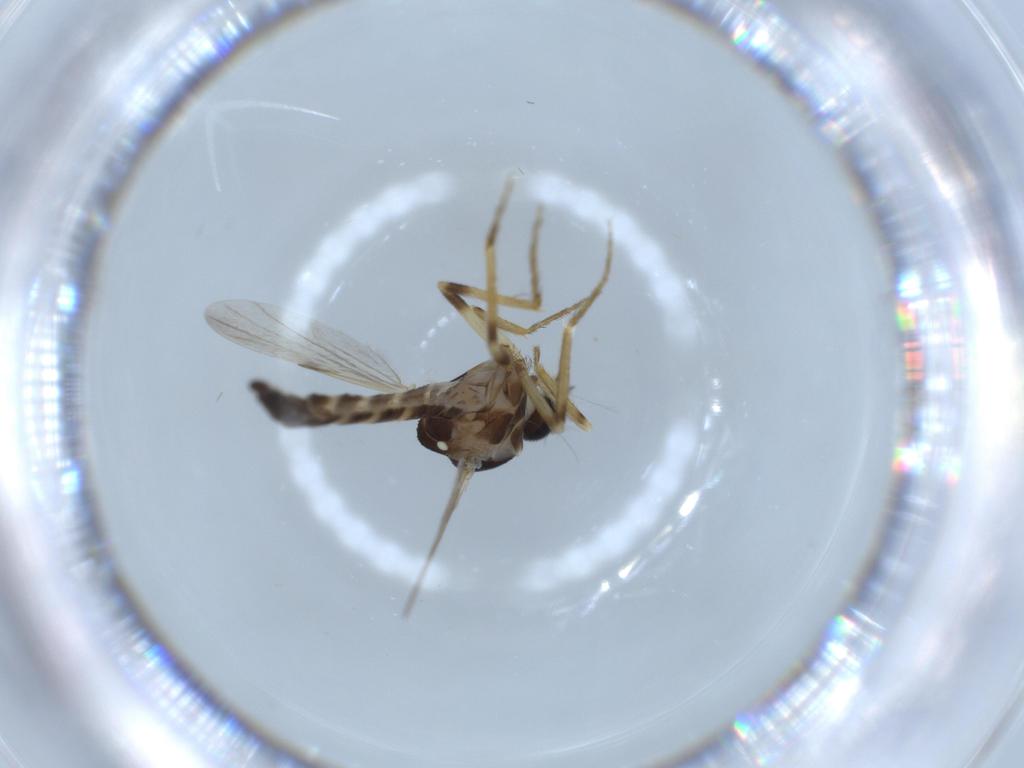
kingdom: Animalia
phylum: Arthropoda
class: Insecta
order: Diptera
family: Sciaridae
